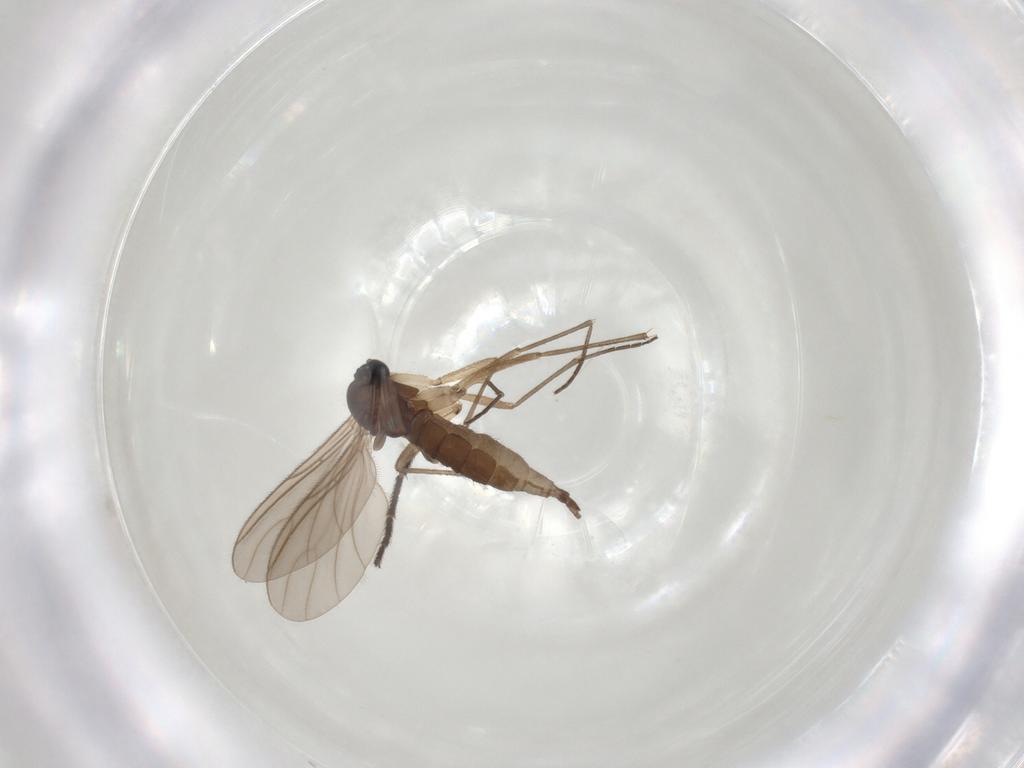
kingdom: Animalia
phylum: Arthropoda
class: Insecta
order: Diptera
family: Sciaridae
